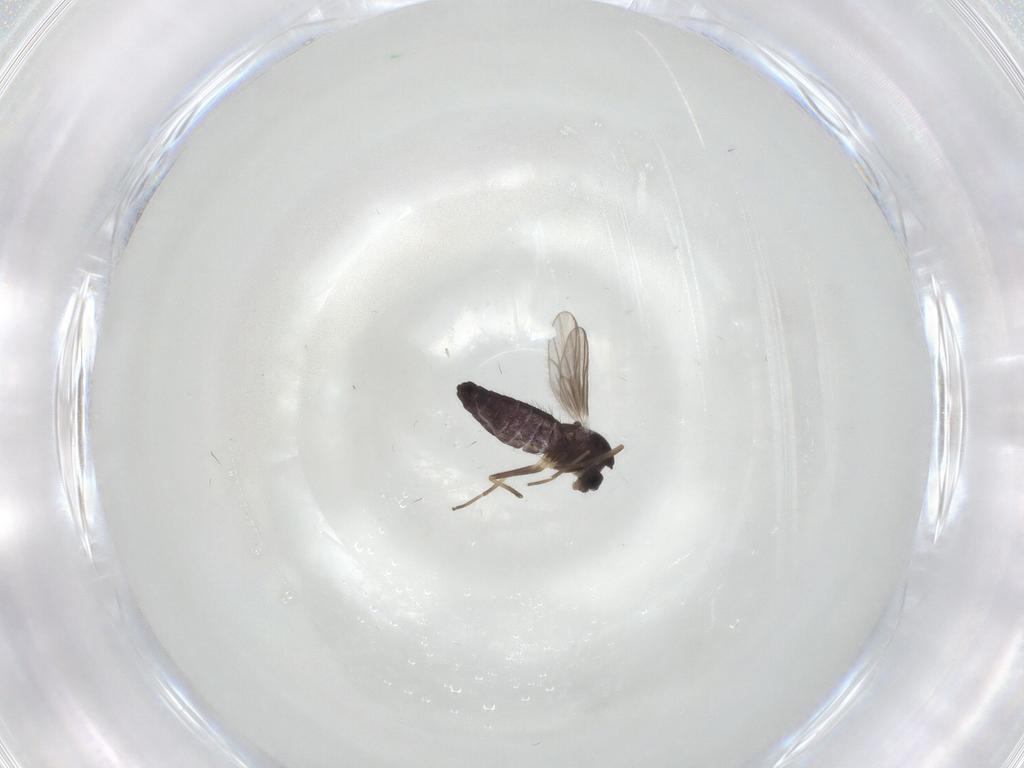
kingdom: Animalia
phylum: Arthropoda
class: Insecta
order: Diptera
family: Chironomidae
